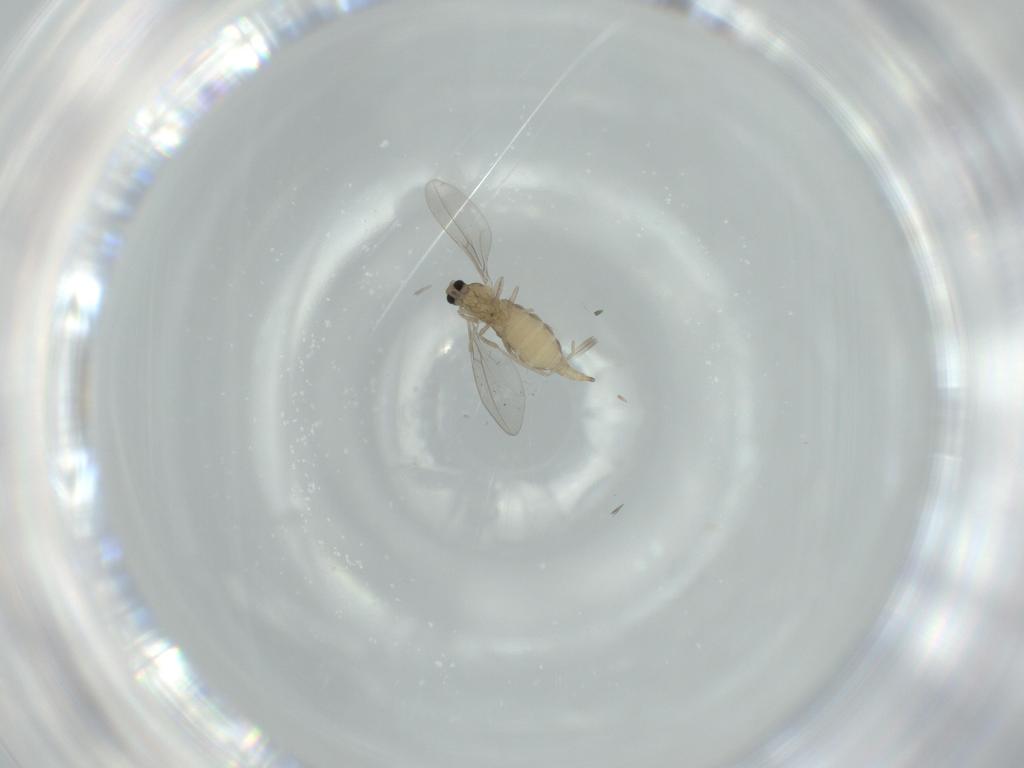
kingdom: Animalia
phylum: Arthropoda
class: Insecta
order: Diptera
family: Cecidomyiidae
